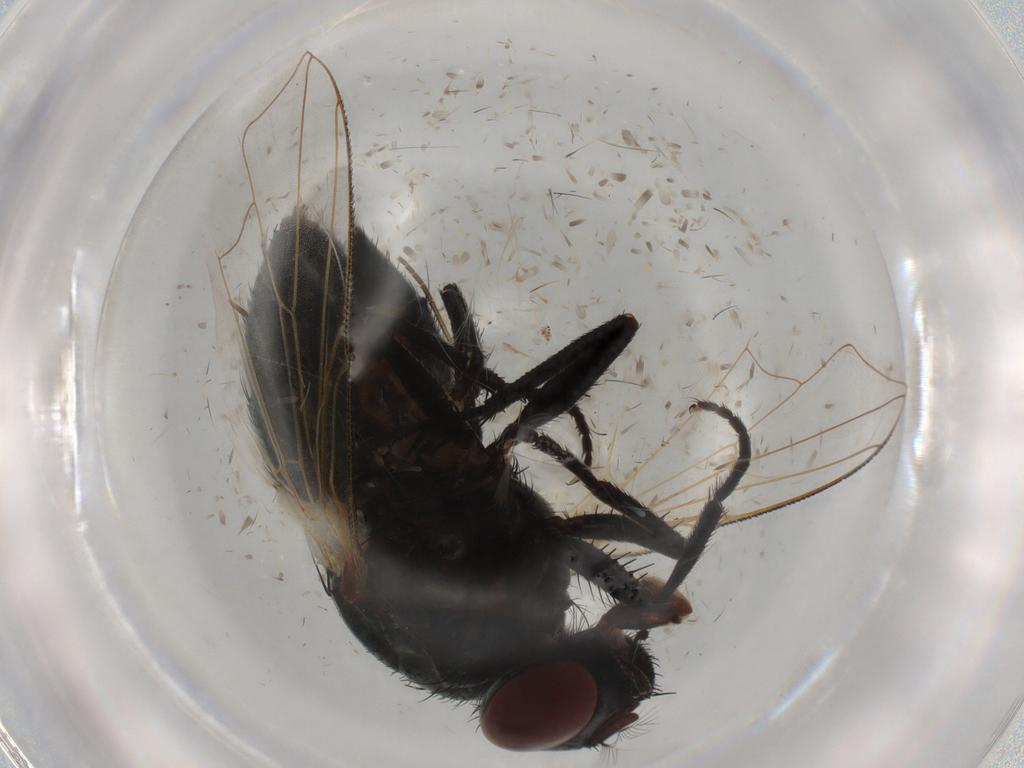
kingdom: Animalia
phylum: Arthropoda
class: Insecta
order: Diptera
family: Muscidae
